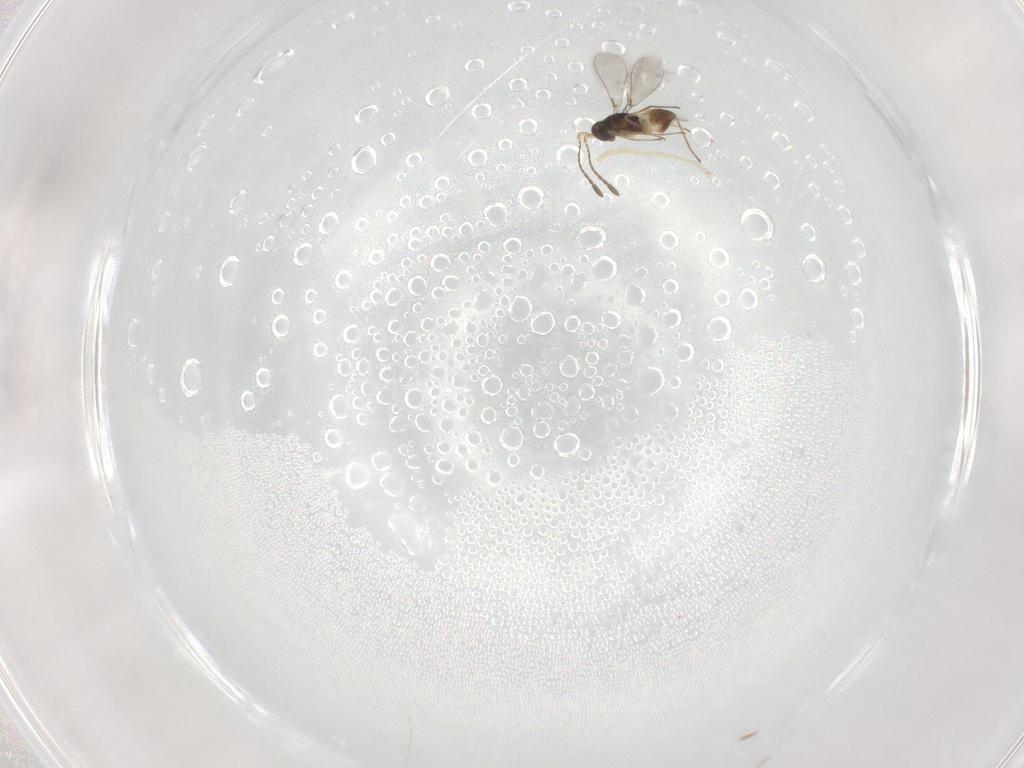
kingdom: Animalia
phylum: Arthropoda
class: Insecta
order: Hymenoptera
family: Mymaridae
